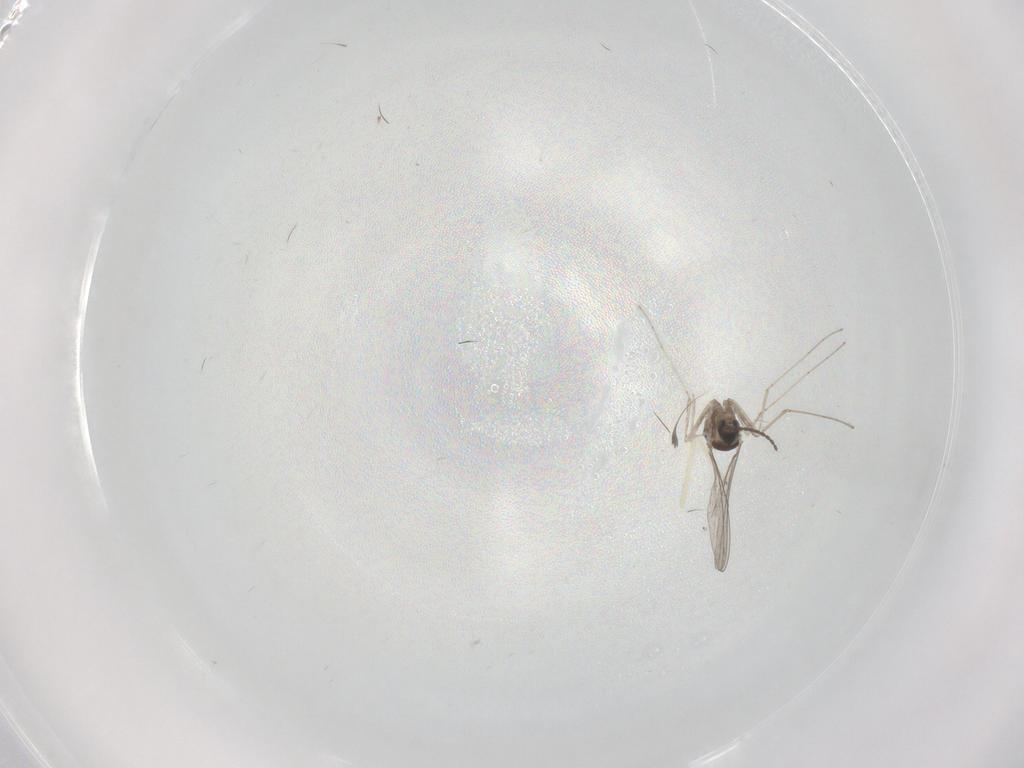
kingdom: Animalia
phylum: Arthropoda
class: Insecta
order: Diptera
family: Cecidomyiidae
